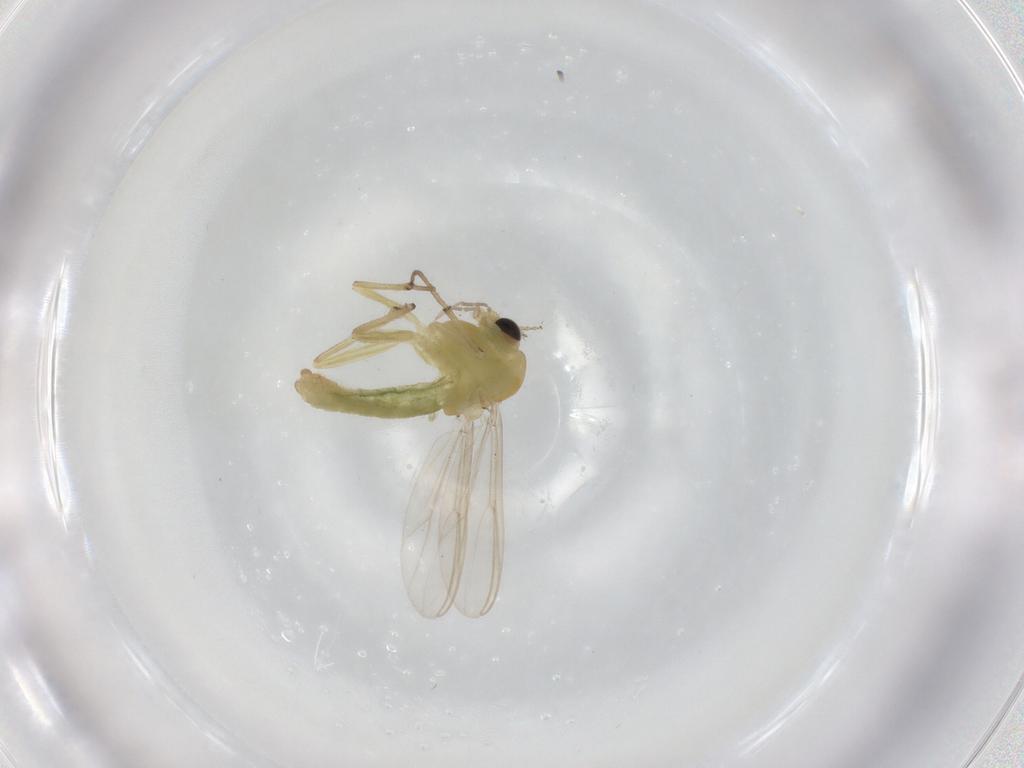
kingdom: Animalia
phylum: Arthropoda
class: Insecta
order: Diptera
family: Chironomidae
